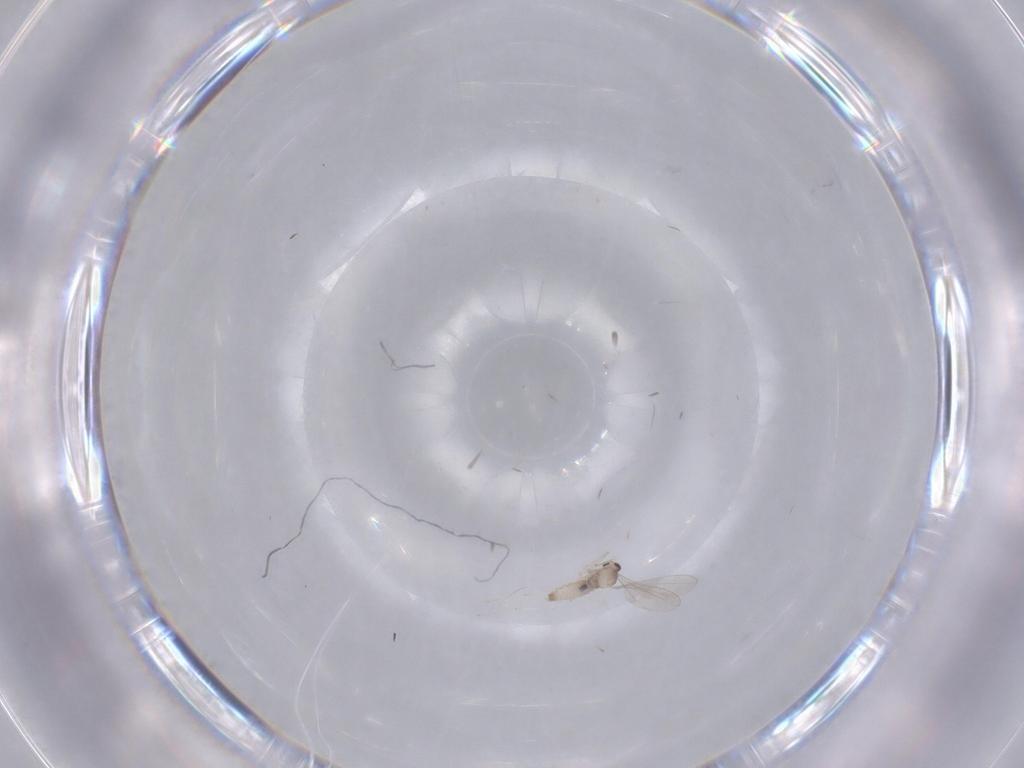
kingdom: Animalia
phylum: Arthropoda
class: Insecta
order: Diptera
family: Cecidomyiidae
